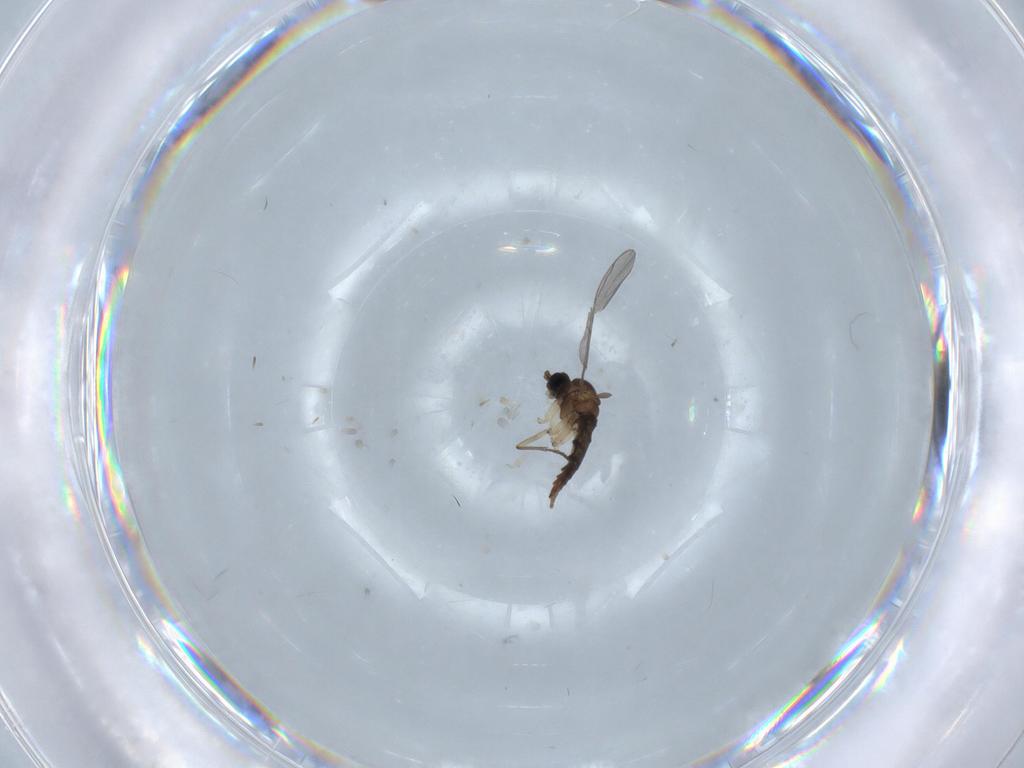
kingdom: Animalia
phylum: Arthropoda
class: Insecta
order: Diptera
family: Sciaridae
